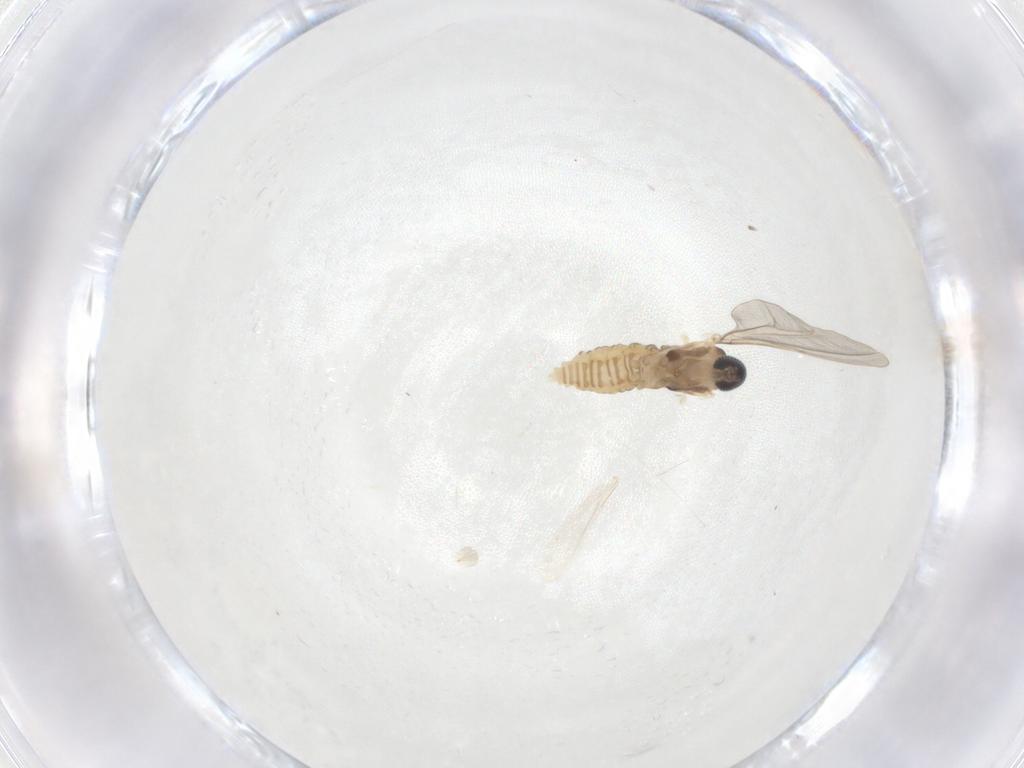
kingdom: Animalia
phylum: Arthropoda
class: Insecta
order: Diptera
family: Cecidomyiidae
